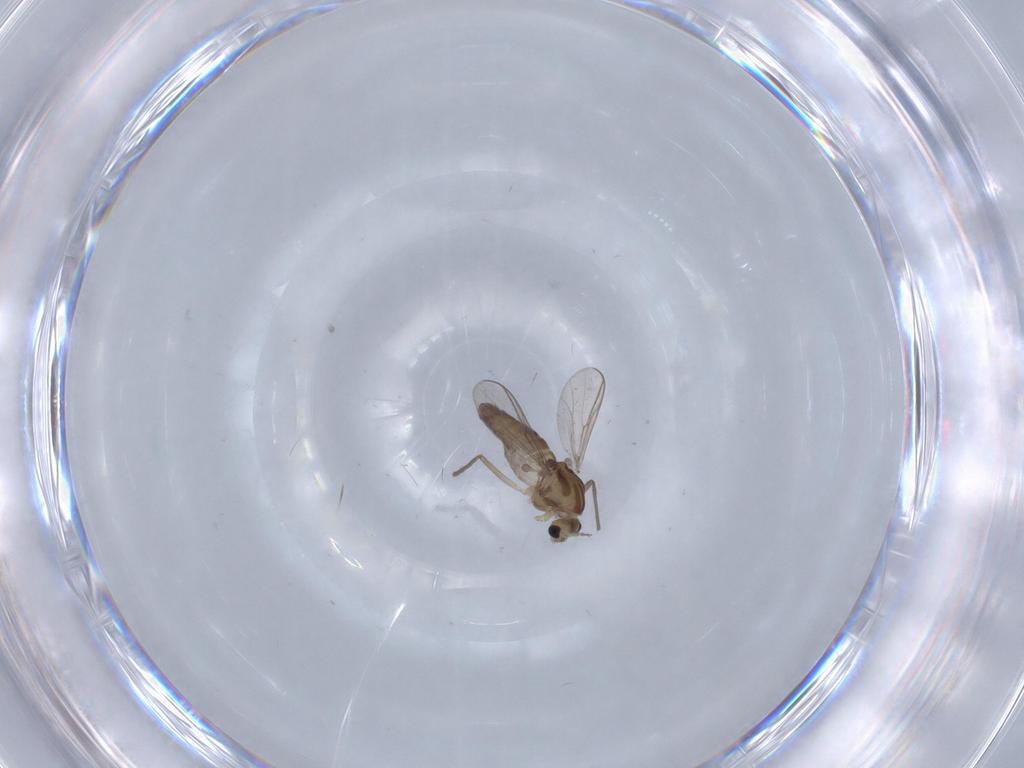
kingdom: Animalia
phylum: Arthropoda
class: Insecta
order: Diptera
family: Chironomidae
